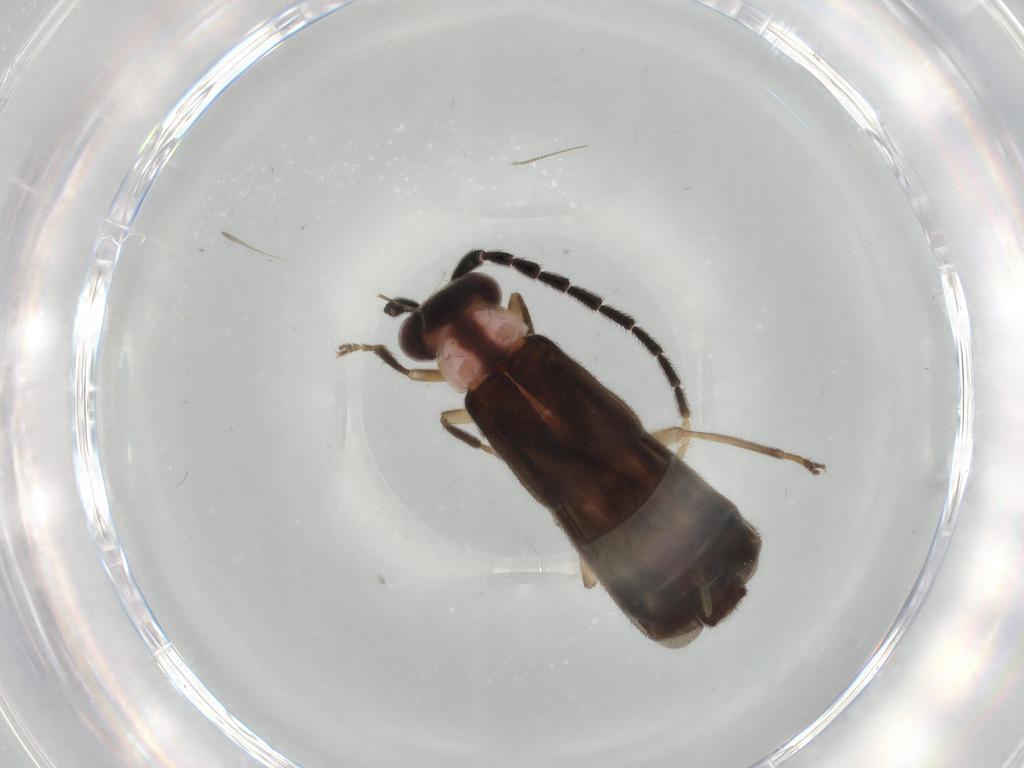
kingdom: Animalia
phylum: Arthropoda
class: Insecta
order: Coleoptera
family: Cantharidae
